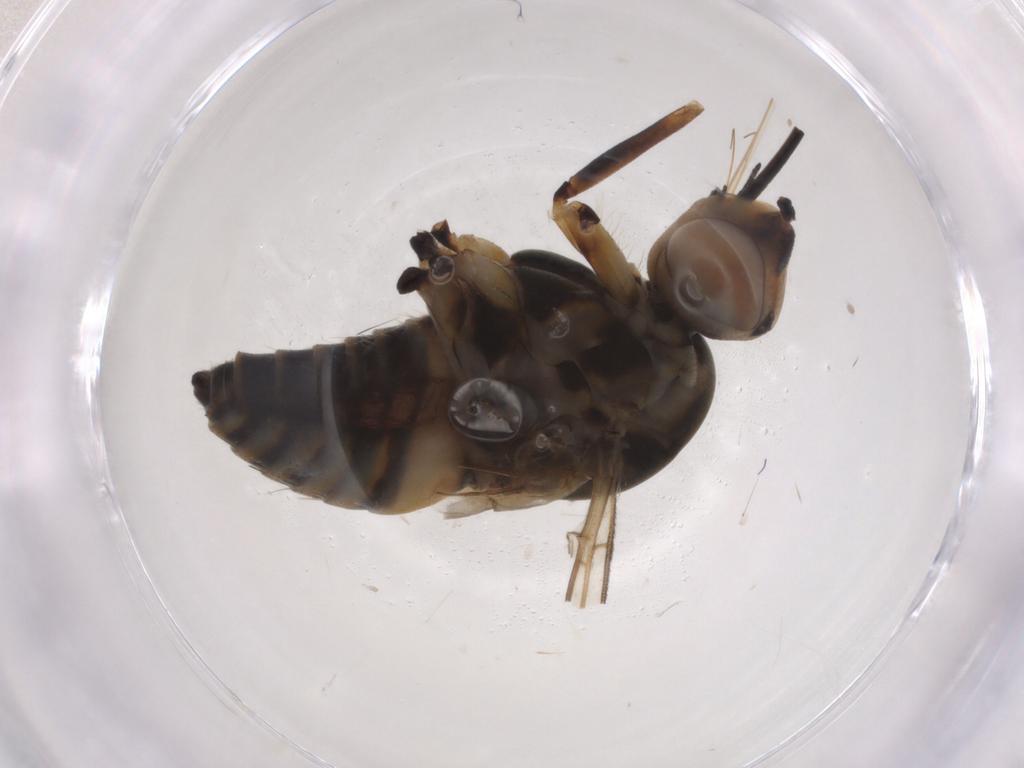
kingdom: Animalia
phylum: Arthropoda
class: Insecta
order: Diptera
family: Bombyliidae
